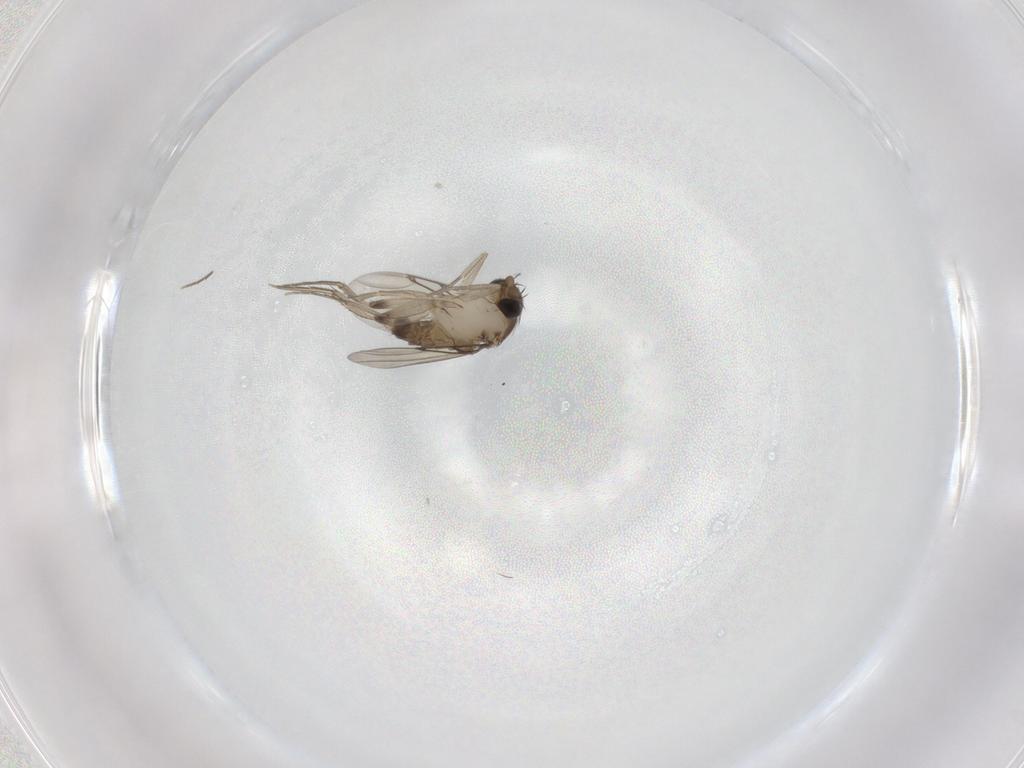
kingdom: Animalia
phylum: Arthropoda
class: Insecta
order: Diptera
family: Phoridae
